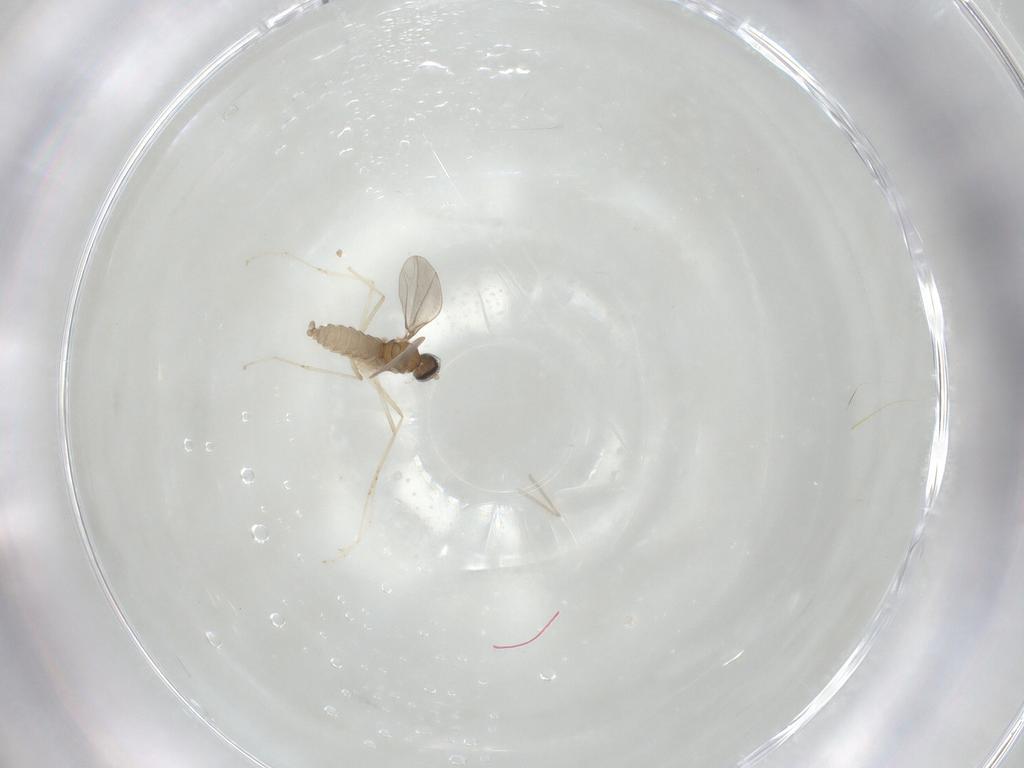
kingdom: Animalia
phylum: Arthropoda
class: Insecta
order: Diptera
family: Cecidomyiidae
